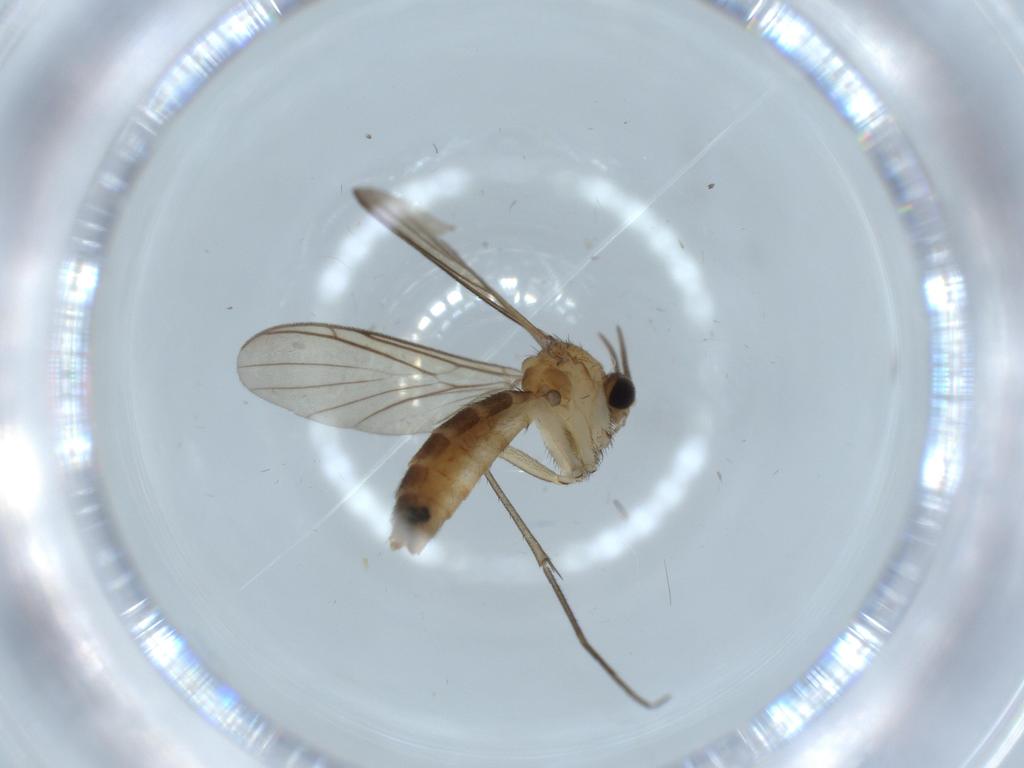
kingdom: Animalia
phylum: Arthropoda
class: Insecta
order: Diptera
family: Keroplatidae
